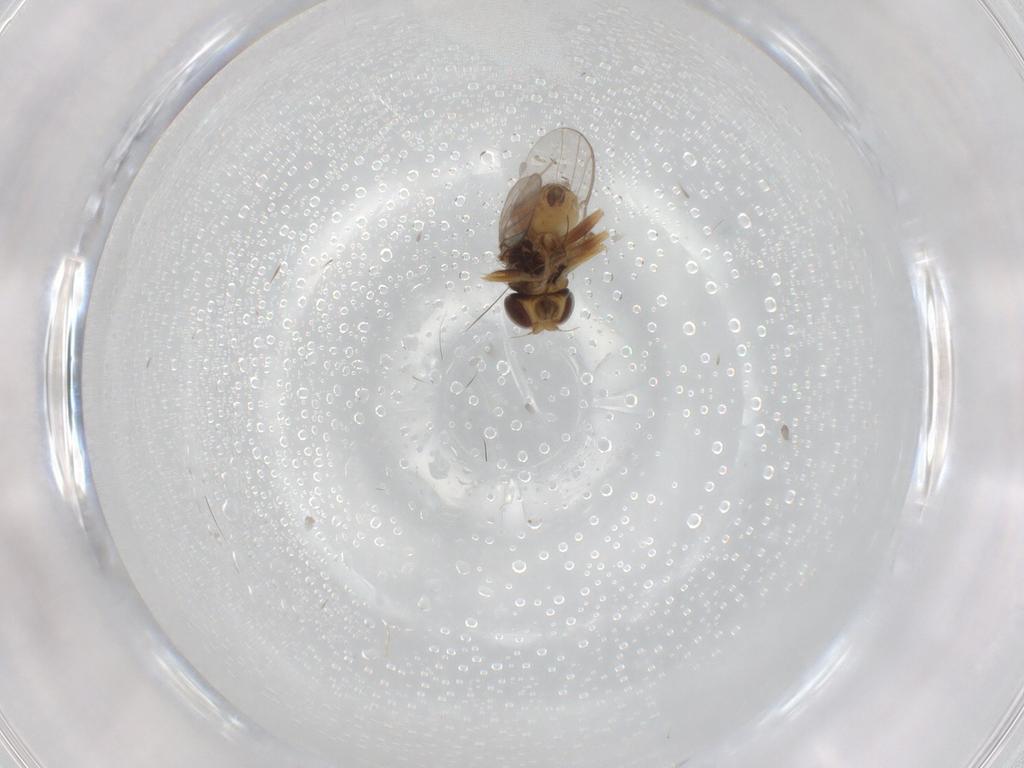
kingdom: Animalia
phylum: Arthropoda
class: Insecta
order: Diptera
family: Chloropidae
